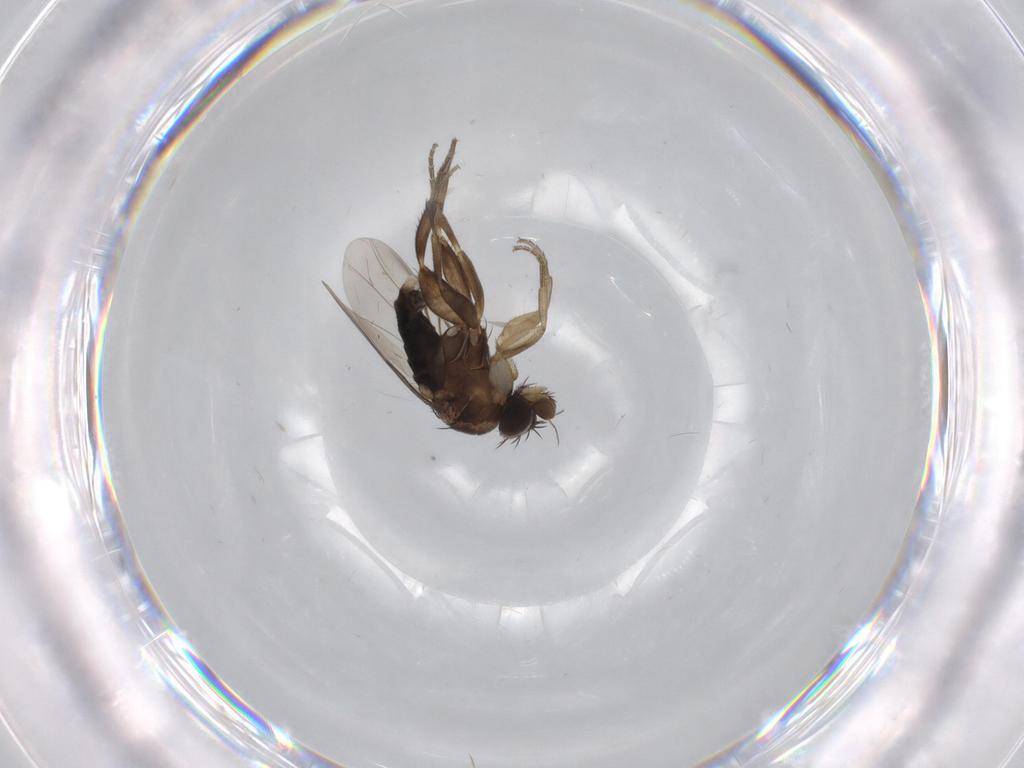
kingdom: Animalia
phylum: Arthropoda
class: Insecta
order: Diptera
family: Phoridae
